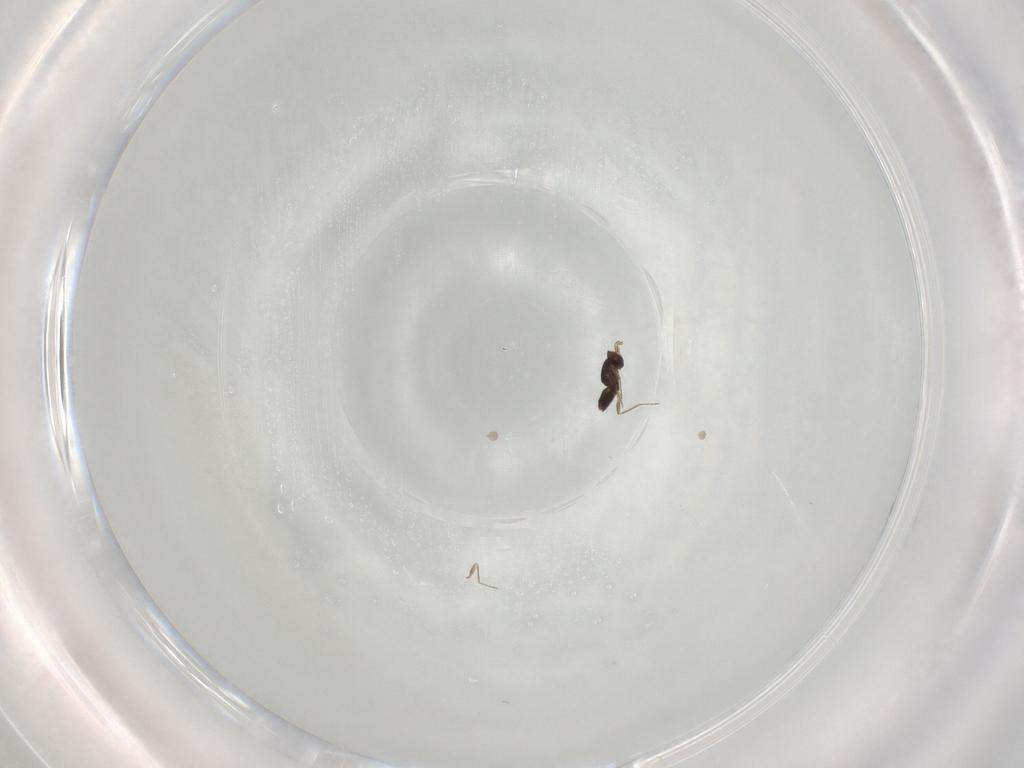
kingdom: Animalia
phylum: Arthropoda
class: Insecta
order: Hymenoptera
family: Mymaridae
